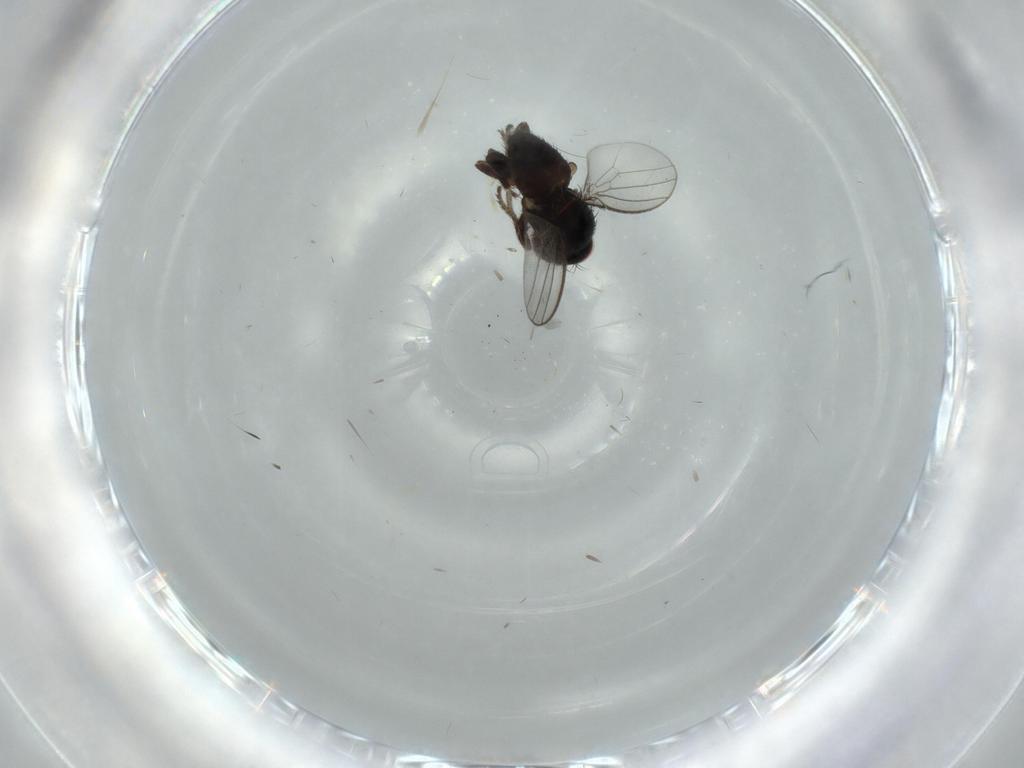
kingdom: Animalia
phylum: Arthropoda
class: Insecta
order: Diptera
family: Milichiidae
